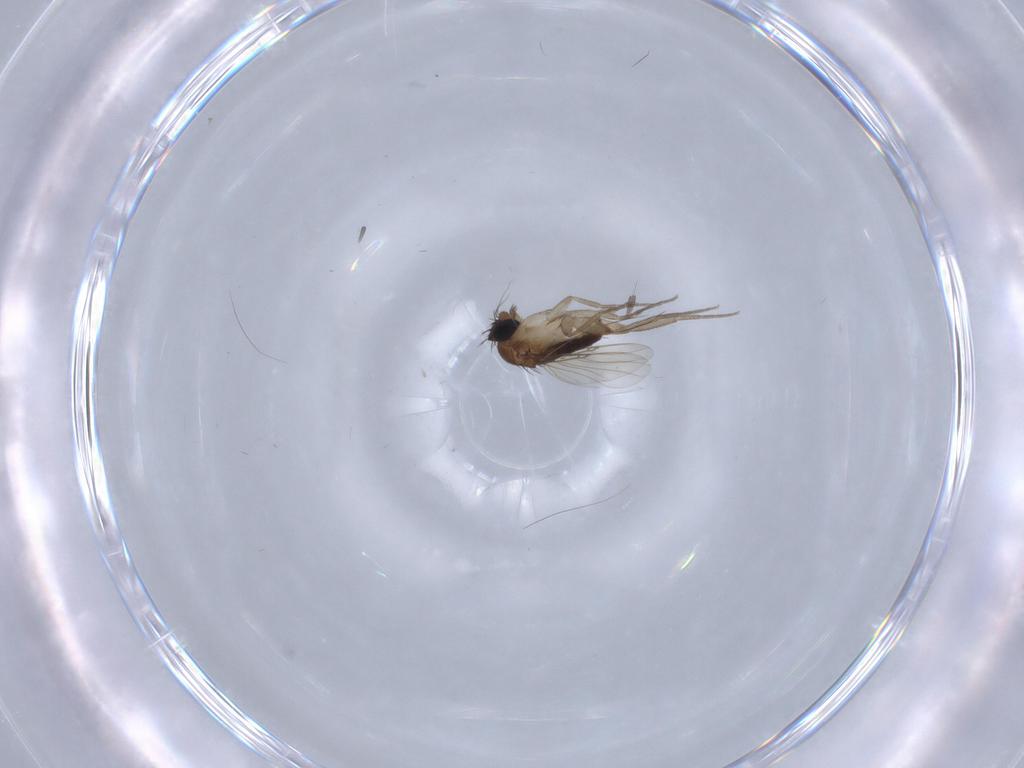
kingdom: Animalia
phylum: Arthropoda
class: Insecta
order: Diptera
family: Phoridae
